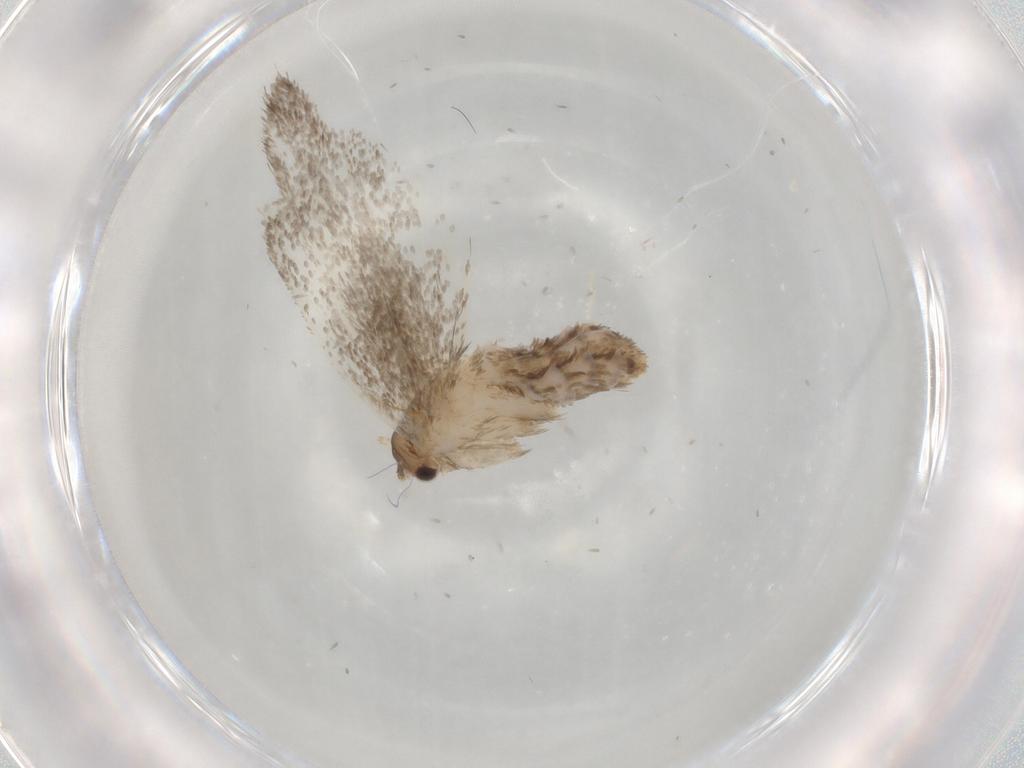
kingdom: Animalia
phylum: Arthropoda
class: Insecta
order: Lepidoptera
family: Dryadaulidae
